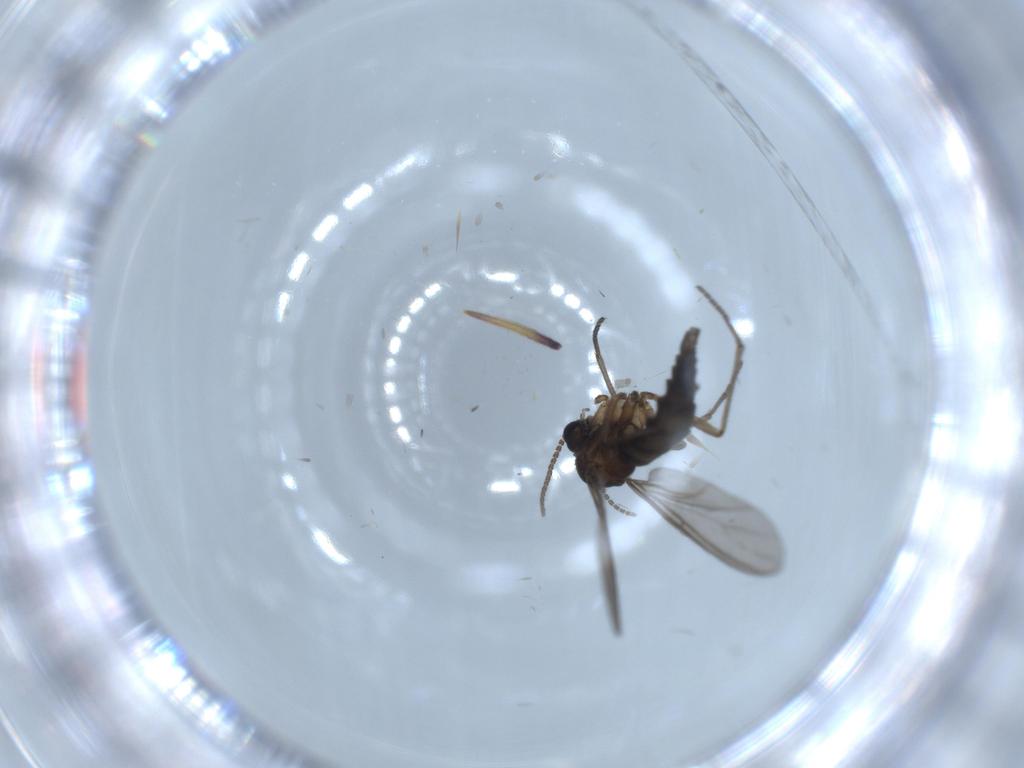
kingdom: Animalia
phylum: Arthropoda
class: Insecta
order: Diptera
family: Sciaridae
